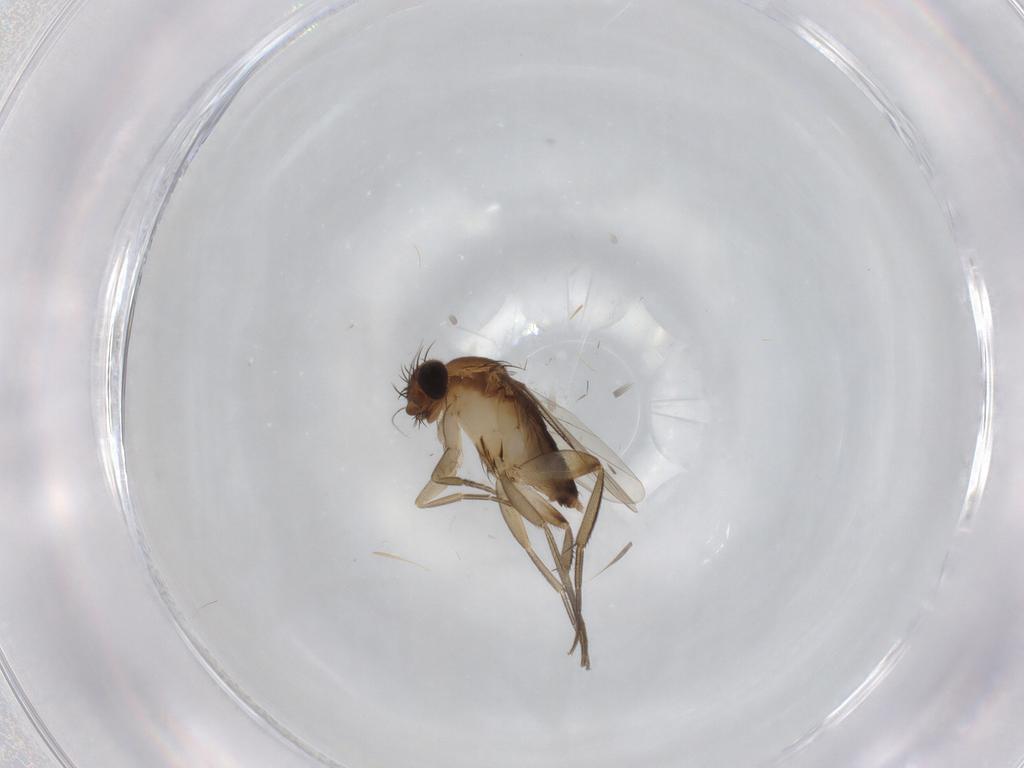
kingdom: Animalia
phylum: Arthropoda
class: Insecta
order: Diptera
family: Phoridae
